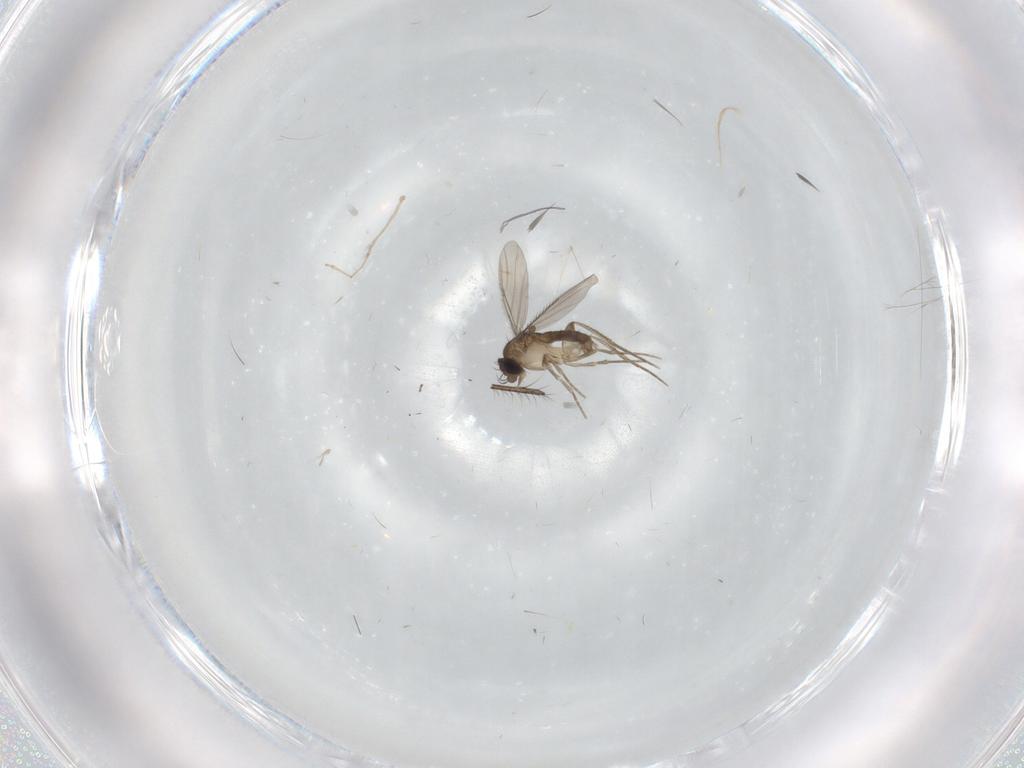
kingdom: Animalia
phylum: Arthropoda
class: Insecta
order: Diptera
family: Phoridae
